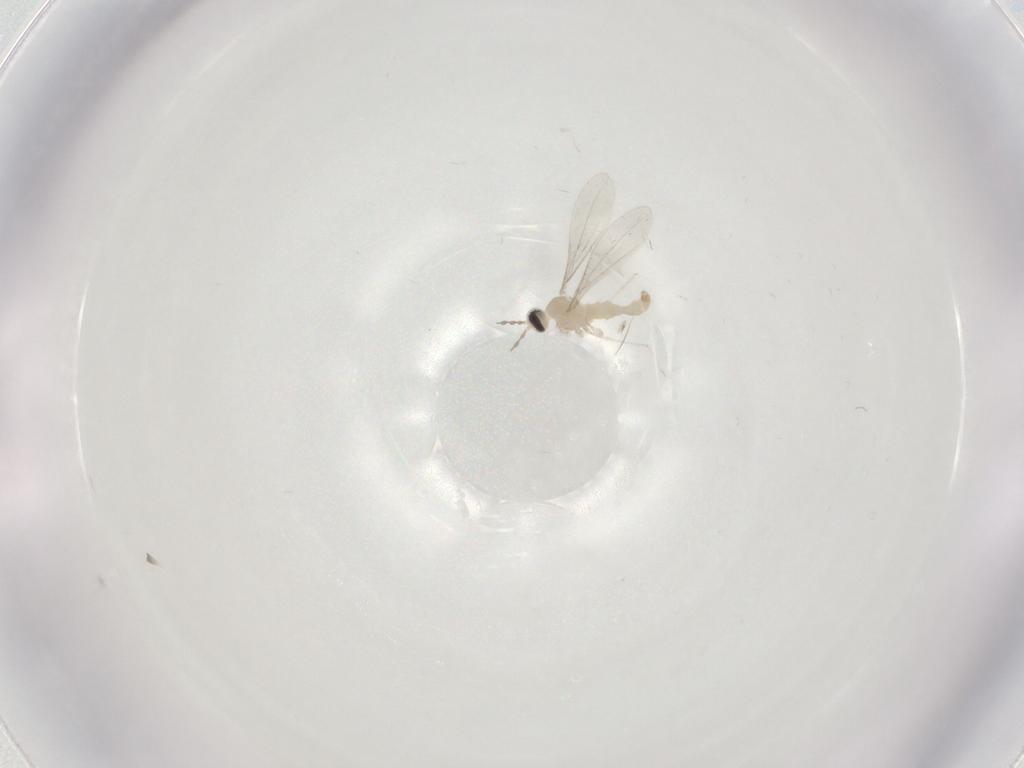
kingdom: Animalia
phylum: Arthropoda
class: Insecta
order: Diptera
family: Cecidomyiidae
